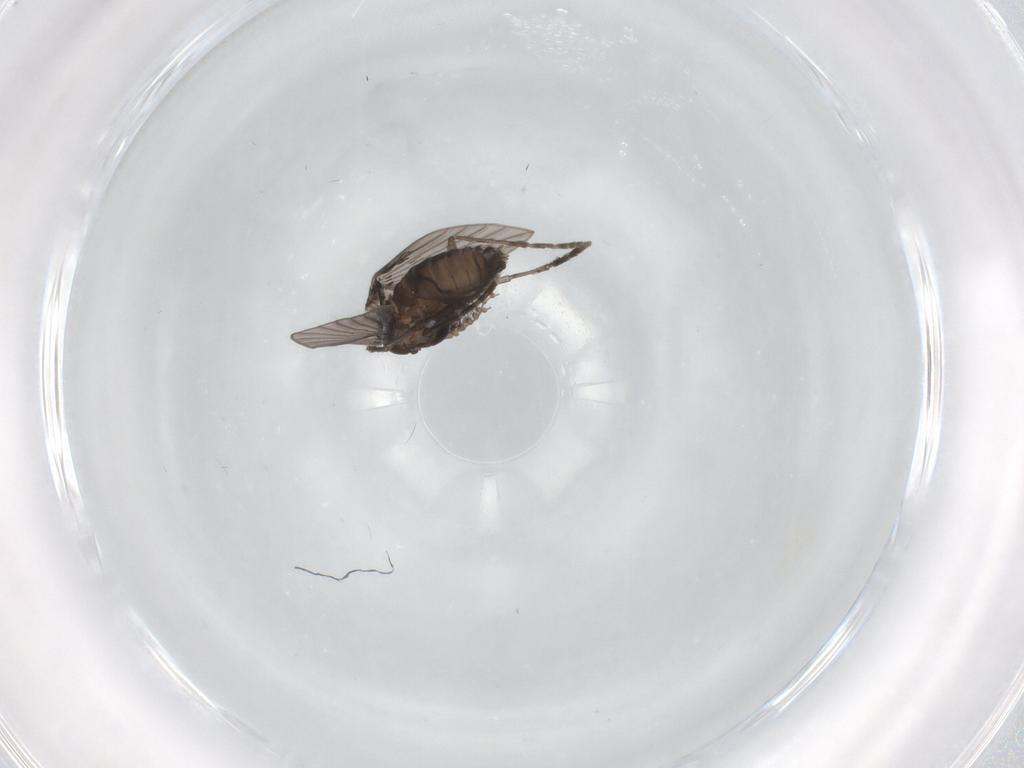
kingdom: Animalia
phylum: Arthropoda
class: Insecta
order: Diptera
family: Psychodidae
